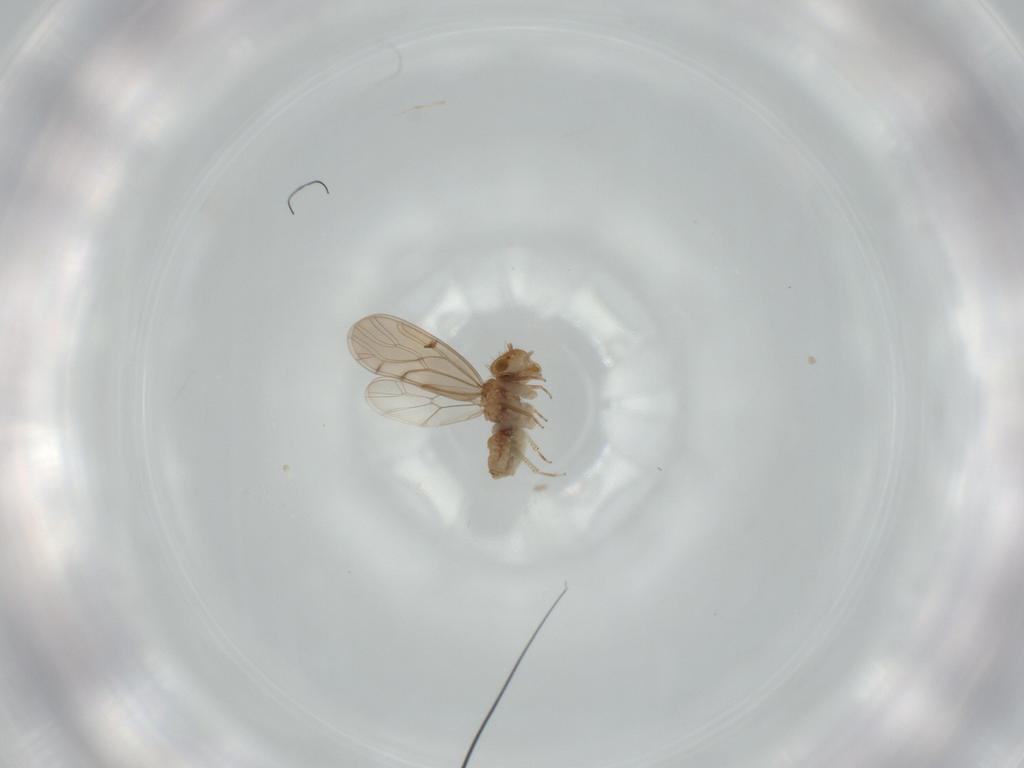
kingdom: Animalia
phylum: Arthropoda
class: Insecta
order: Psocodea
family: Ectopsocidae
